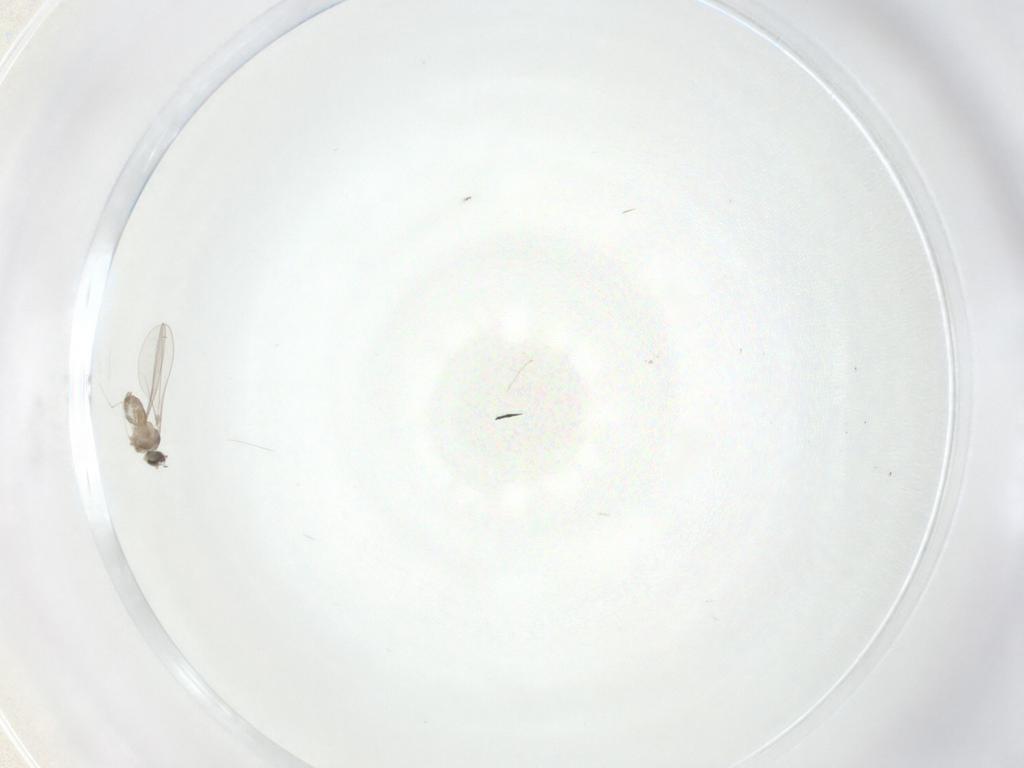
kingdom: Animalia
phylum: Arthropoda
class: Insecta
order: Diptera
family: Cecidomyiidae
